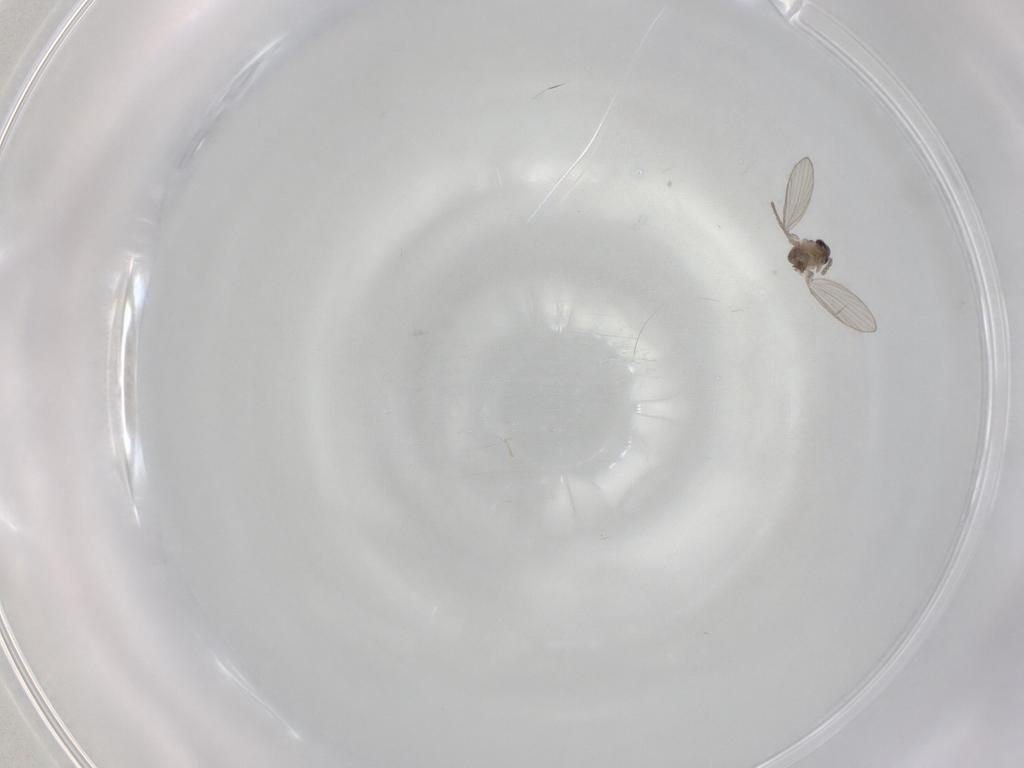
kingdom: Animalia
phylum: Arthropoda
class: Insecta
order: Diptera
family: Psychodidae
